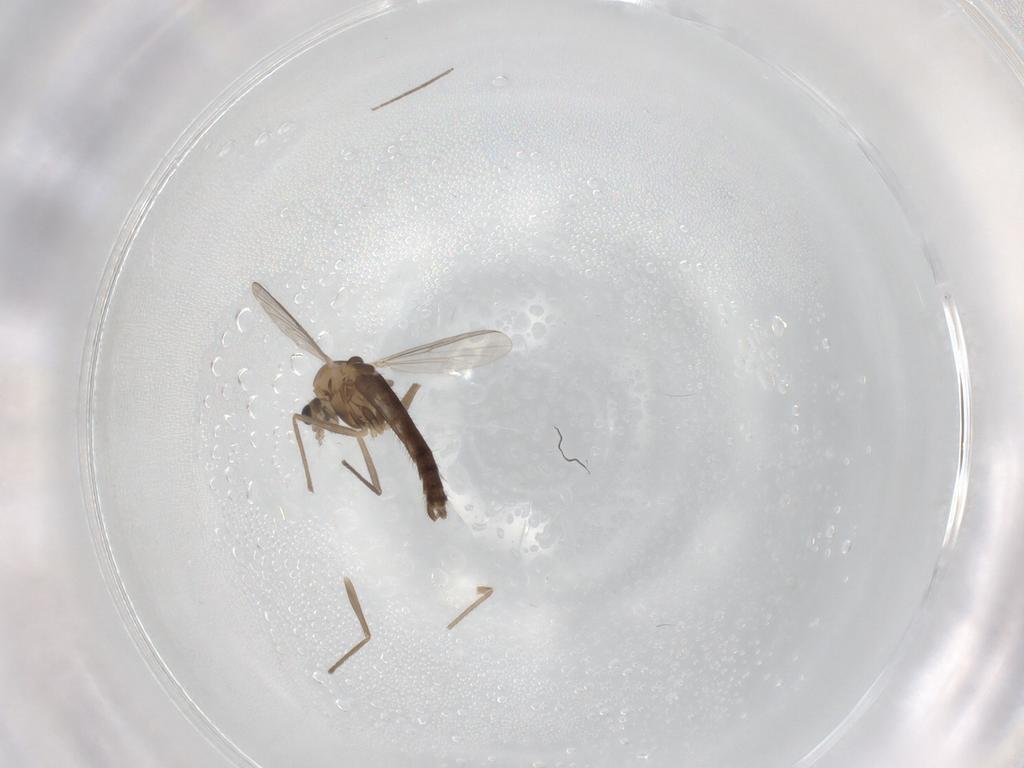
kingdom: Animalia
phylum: Arthropoda
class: Insecta
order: Diptera
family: Chironomidae
